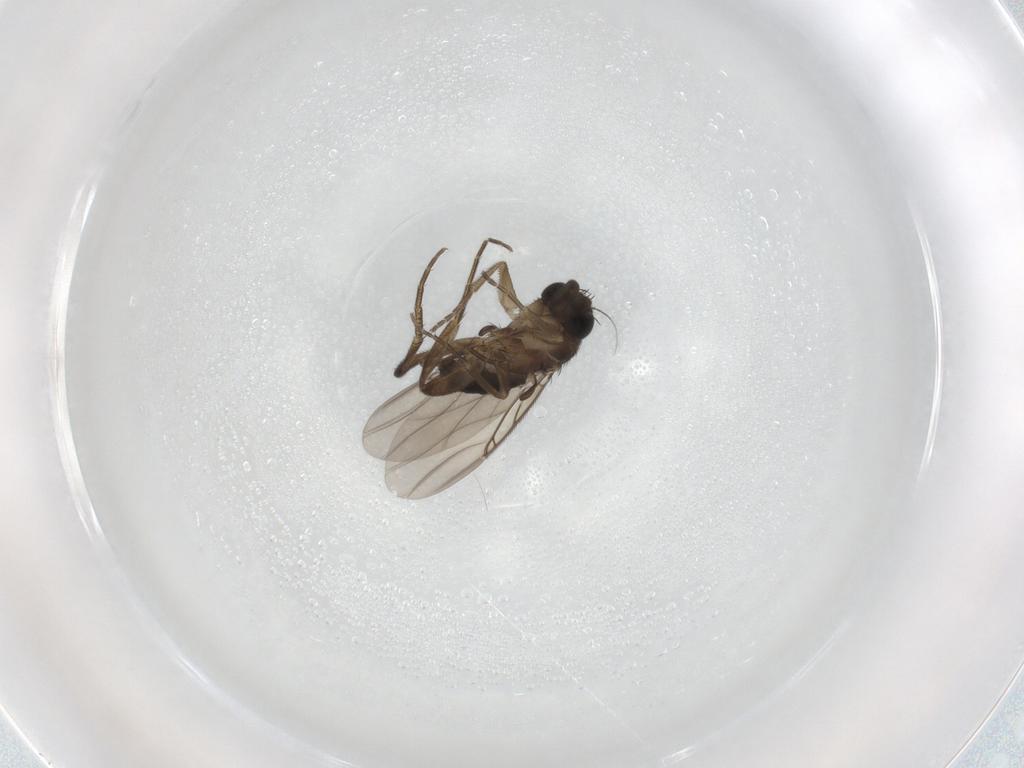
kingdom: Animalia
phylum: Arthropoda
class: Insecta
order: Diptera
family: Phoridae
